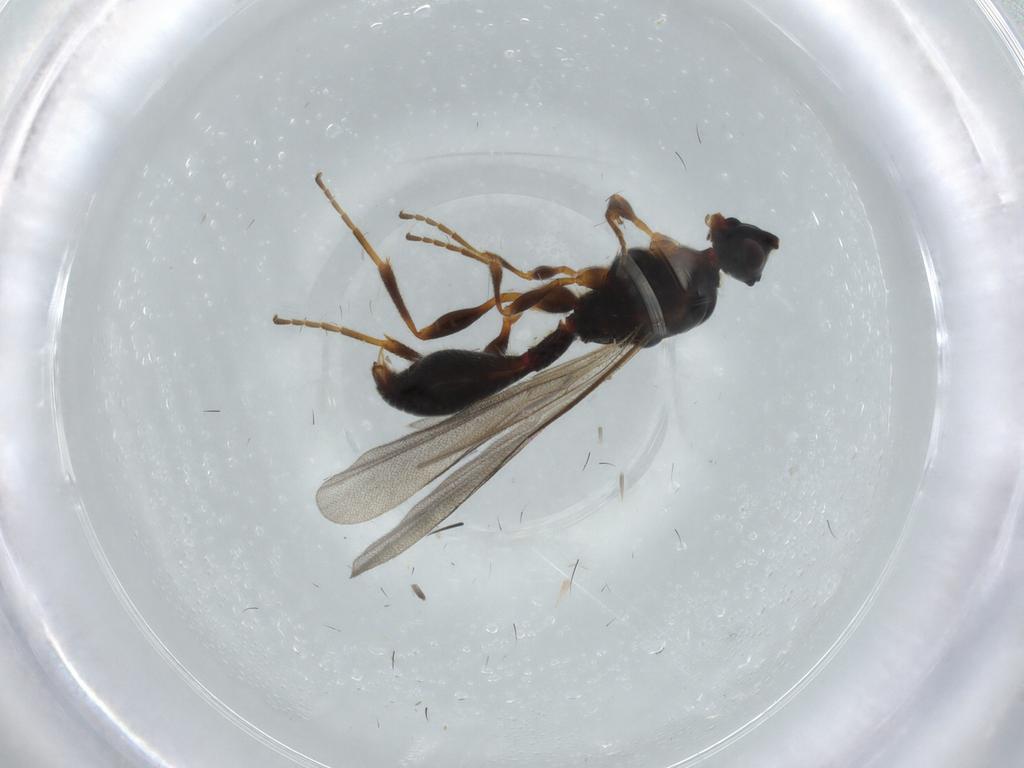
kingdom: Animalia
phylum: Arthropoda
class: Insecta
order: Hymenoptera
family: Diapriidae
